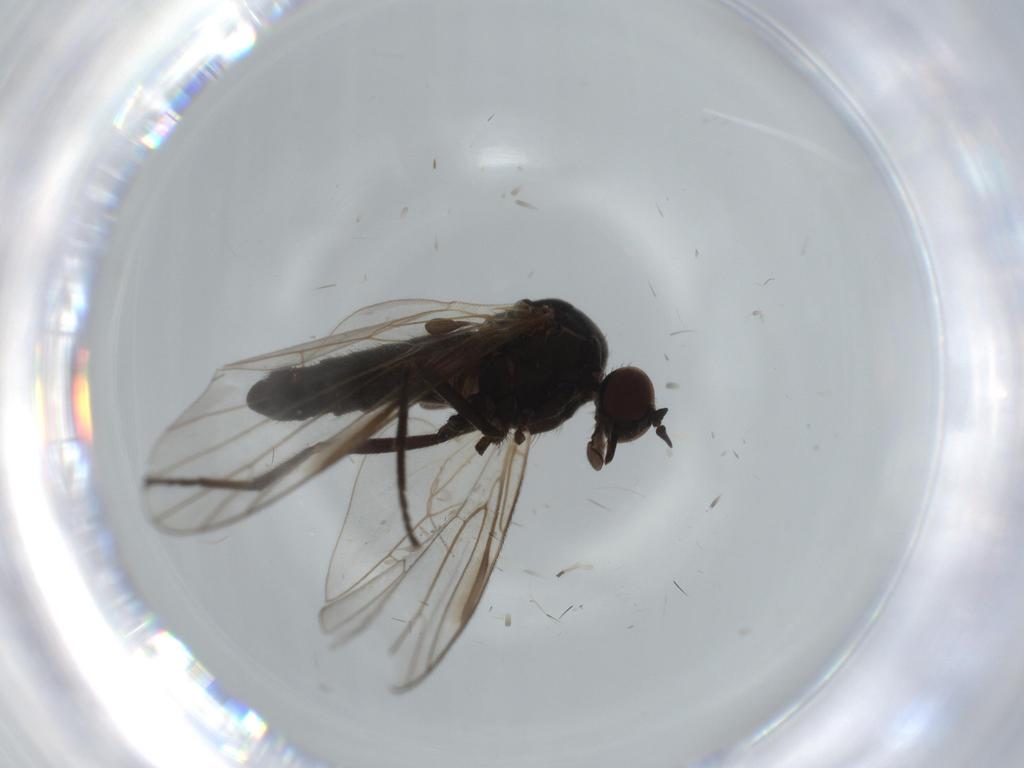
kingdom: Animalia
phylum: Arthropoda
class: Insecta
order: Diptera
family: Empididae
